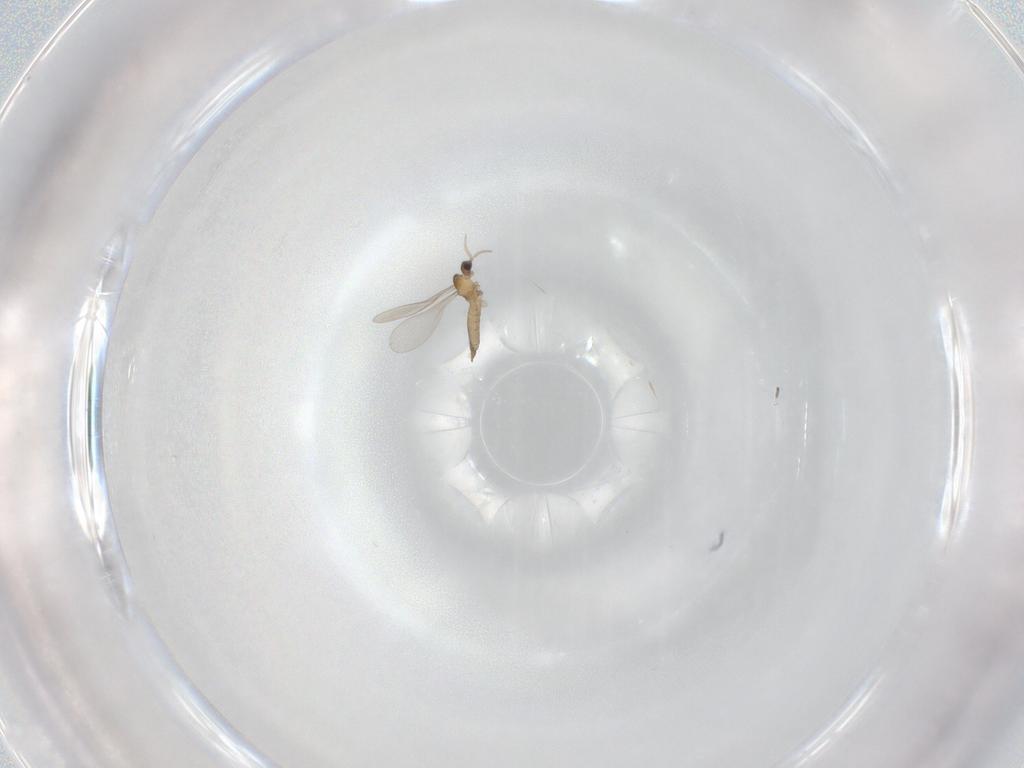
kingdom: Animalia
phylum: Arthropoda
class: Insecta
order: Diptera
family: Cecidomyiidae
